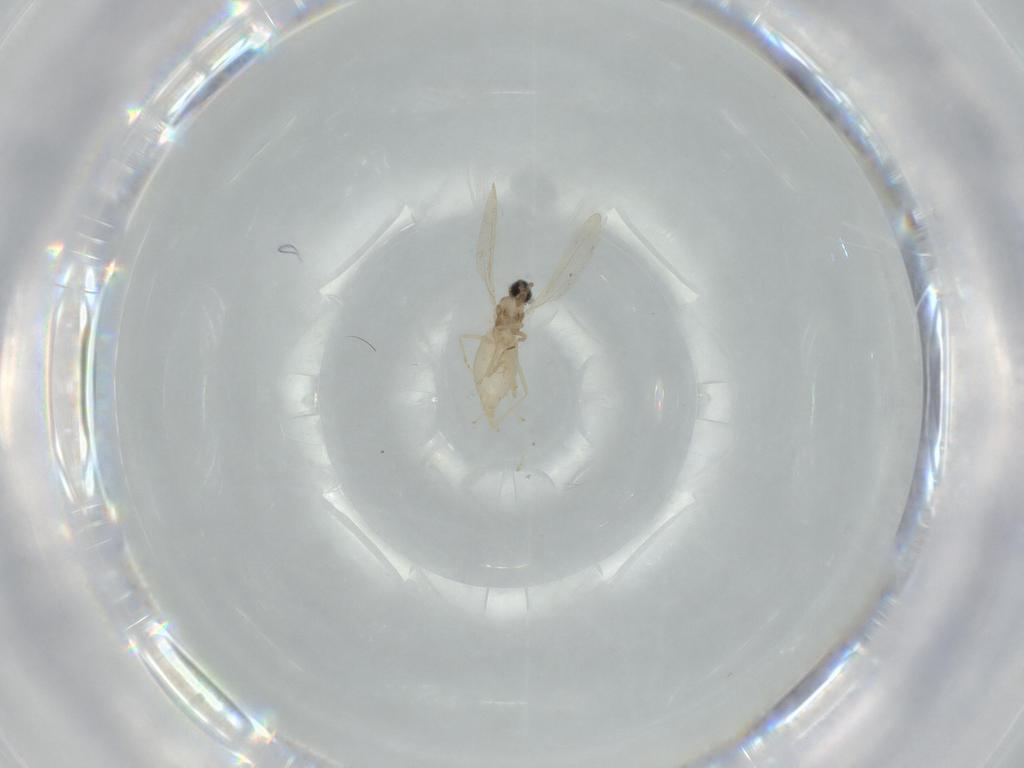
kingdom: Animalia
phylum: Arthropoda
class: Insecta
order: Diptera
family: Cecidomyiidae
